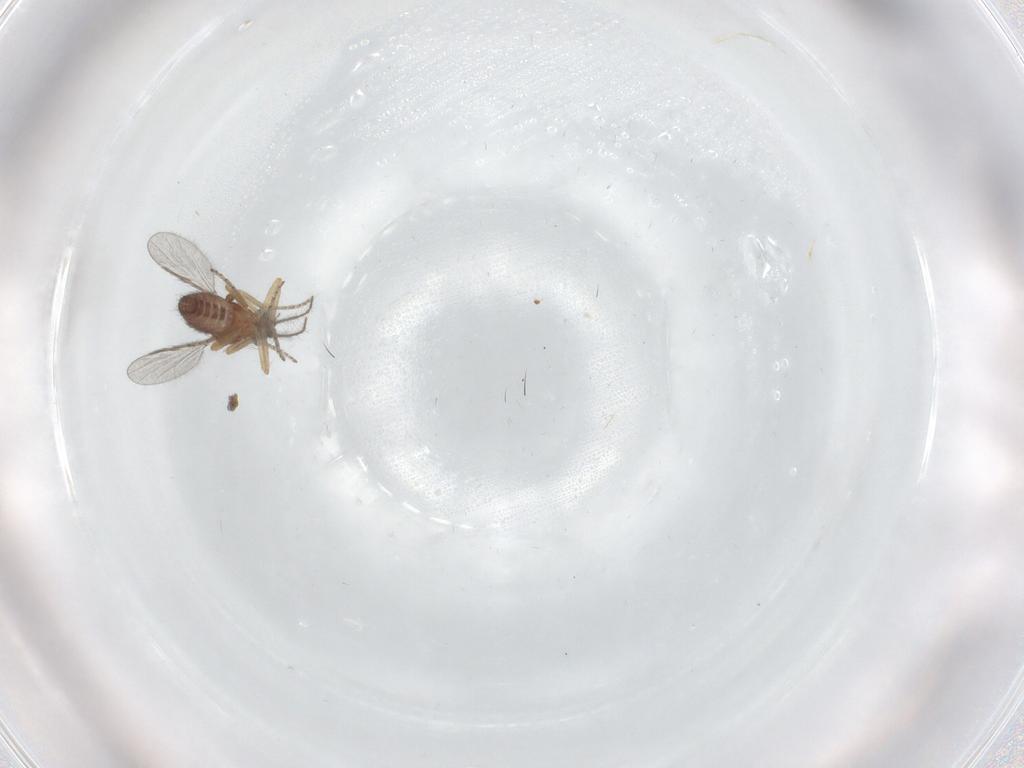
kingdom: Animalia
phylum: Arthropoda
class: Insecta
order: Diptera
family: Ceratopogonidae
